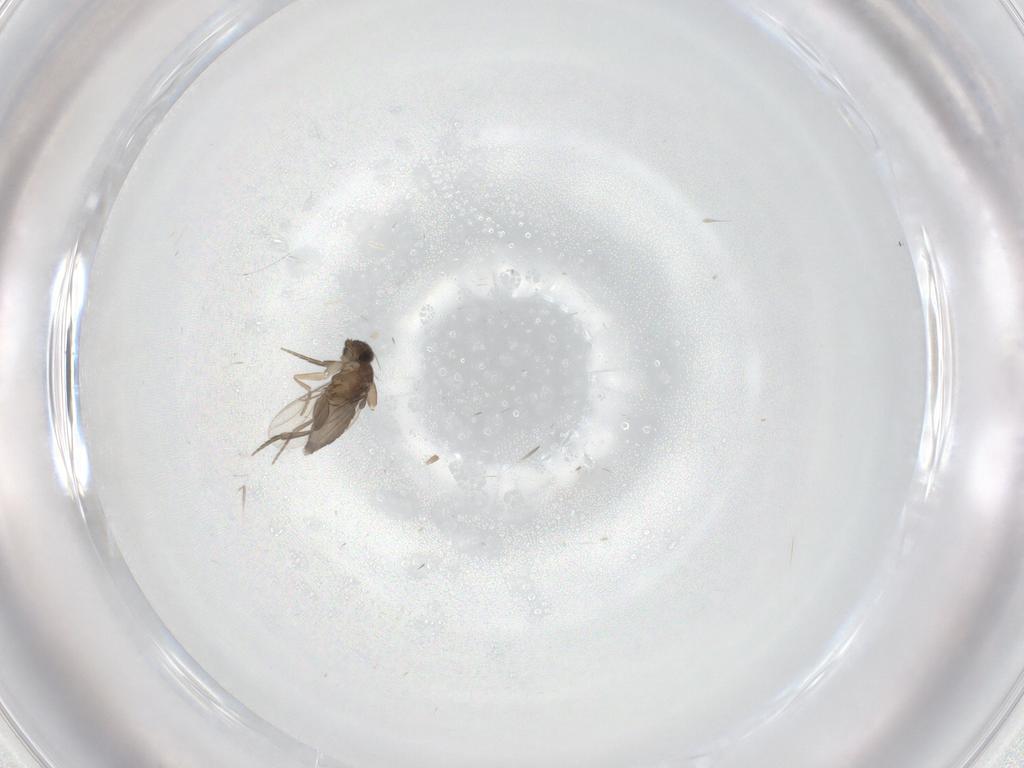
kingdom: Animalia
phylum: Arthropoda
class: Insecta
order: Diptera
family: Phoridae
